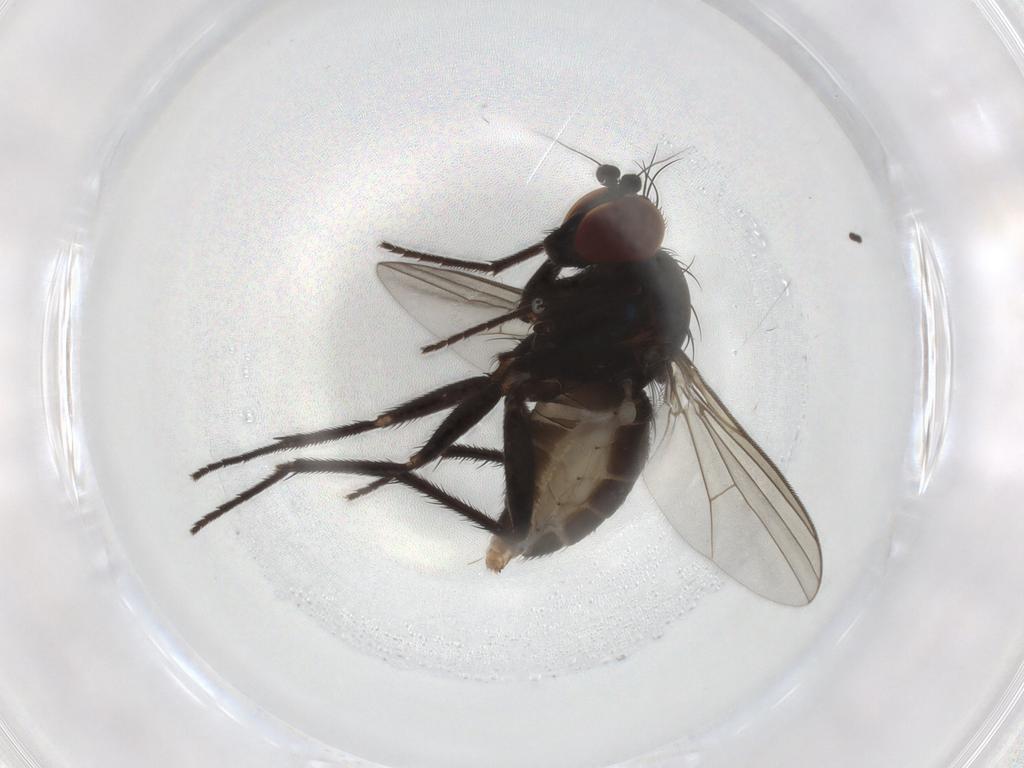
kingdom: Animalia
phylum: Arthropoda
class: Insecta
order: Diptera
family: Dolichopodidae
